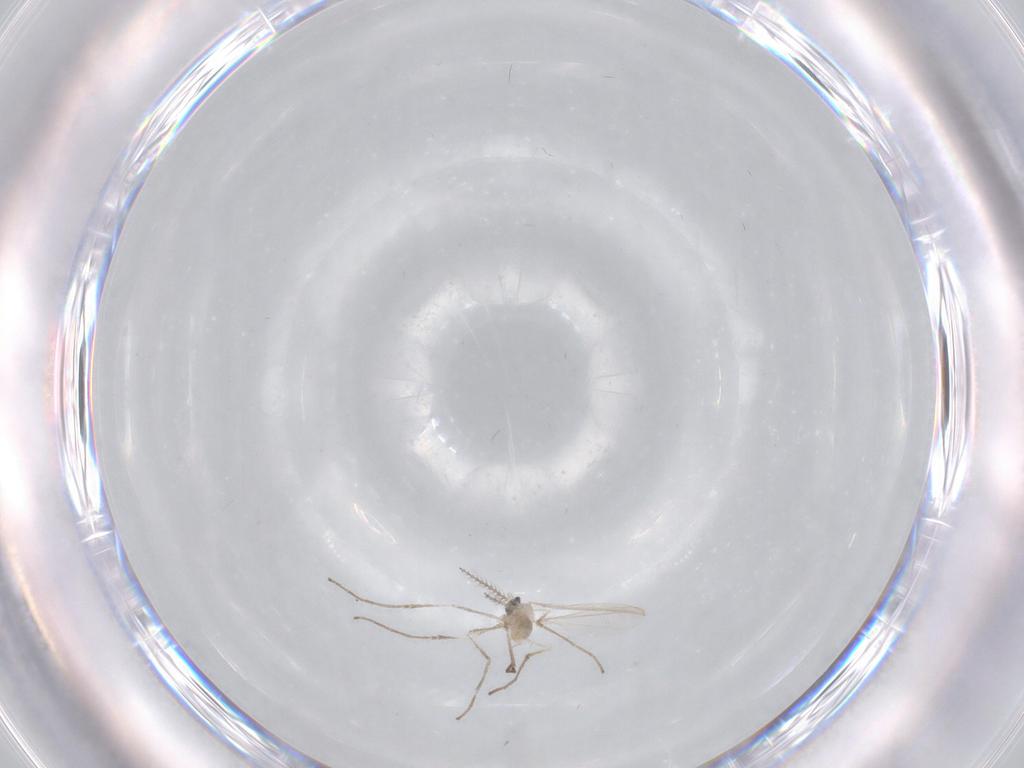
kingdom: Animalia
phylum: Arthropoda
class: Insecta
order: Diptera
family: Cecidomyiidae
